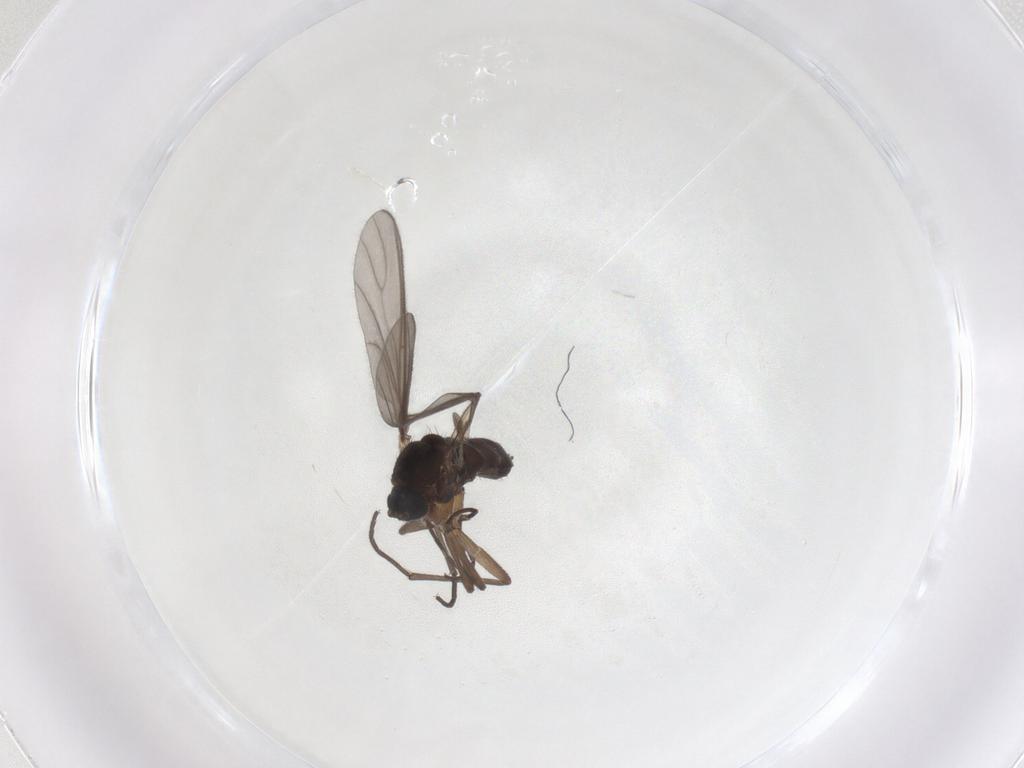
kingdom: Animalia
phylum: Arthropoda
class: Insecta
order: Diptera
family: Sciaridae
